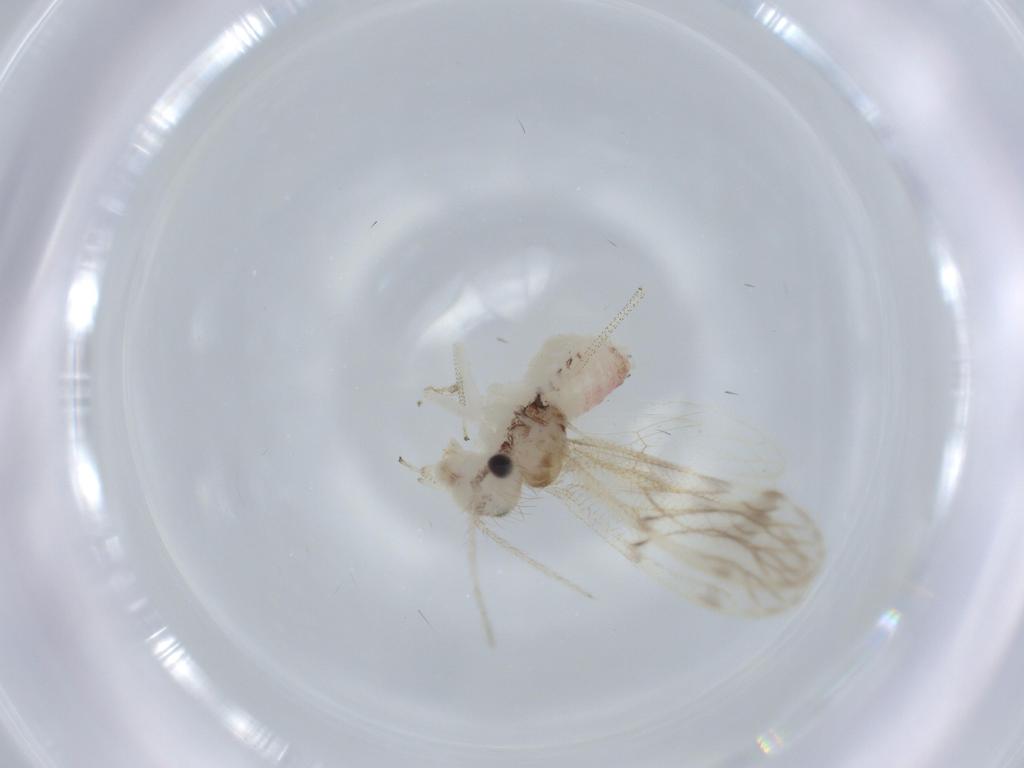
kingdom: Animalia
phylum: Arthropoda
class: Insecta
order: Psocodea
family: Pseudocaeciliidae
